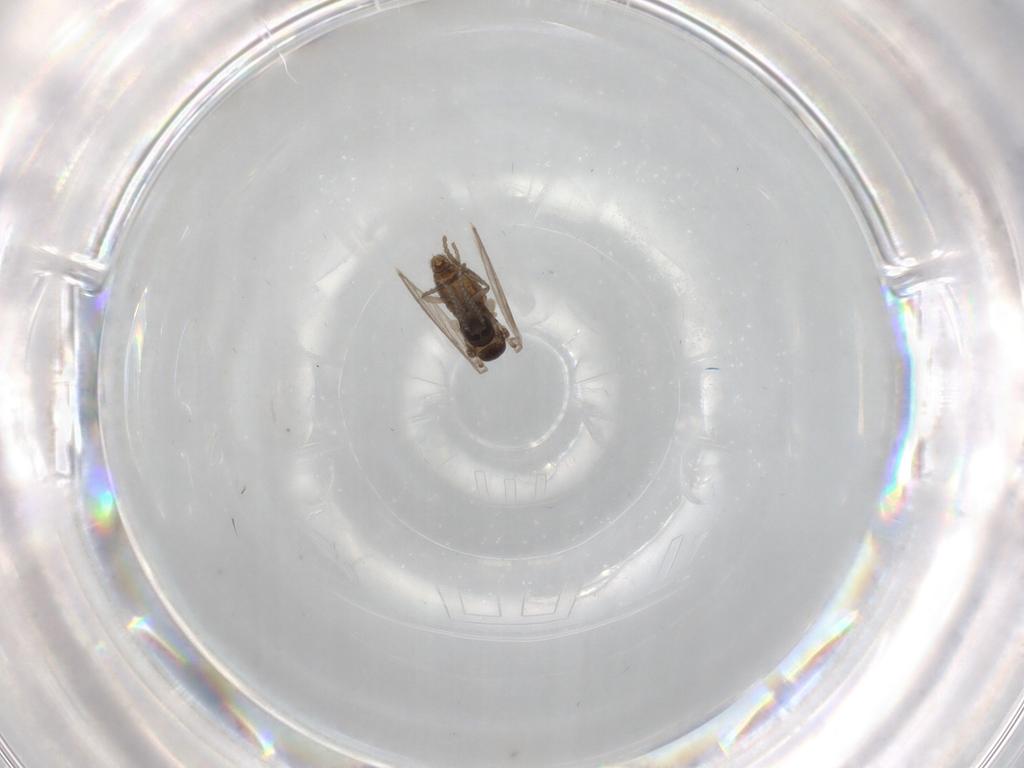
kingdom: Animalia
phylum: Arthropoda
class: Insecta
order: Diptera
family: Psychodidae
